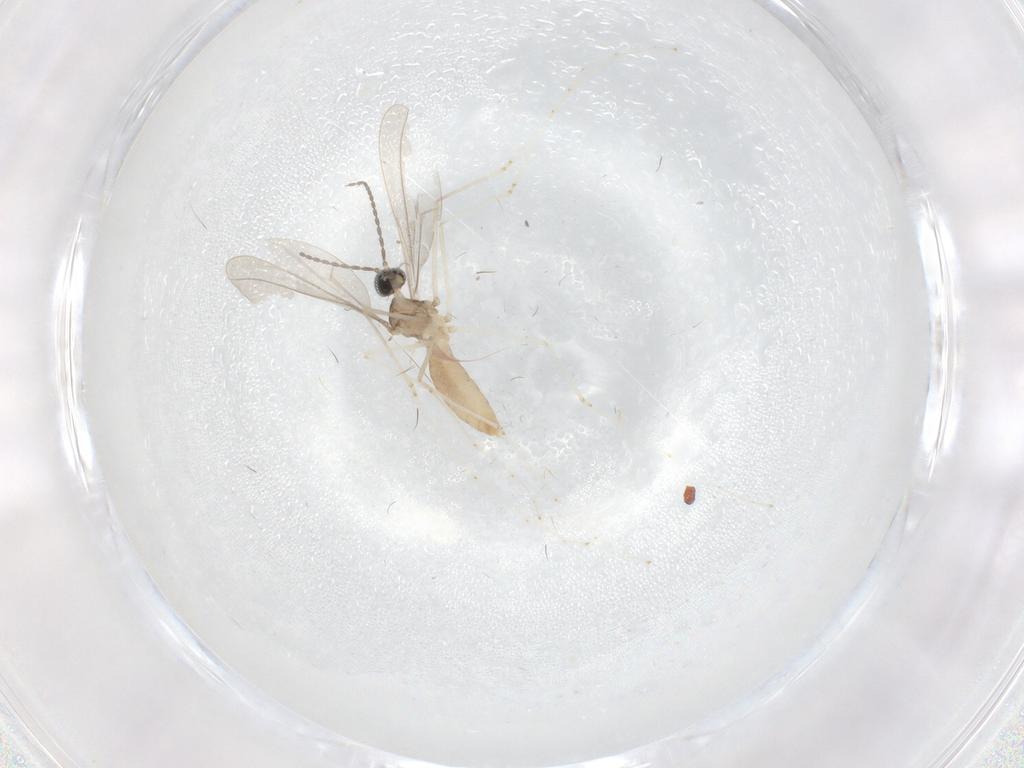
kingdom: Animalia
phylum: Arthropoda
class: Insecta
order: Diptera
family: Cecidomyiidae
